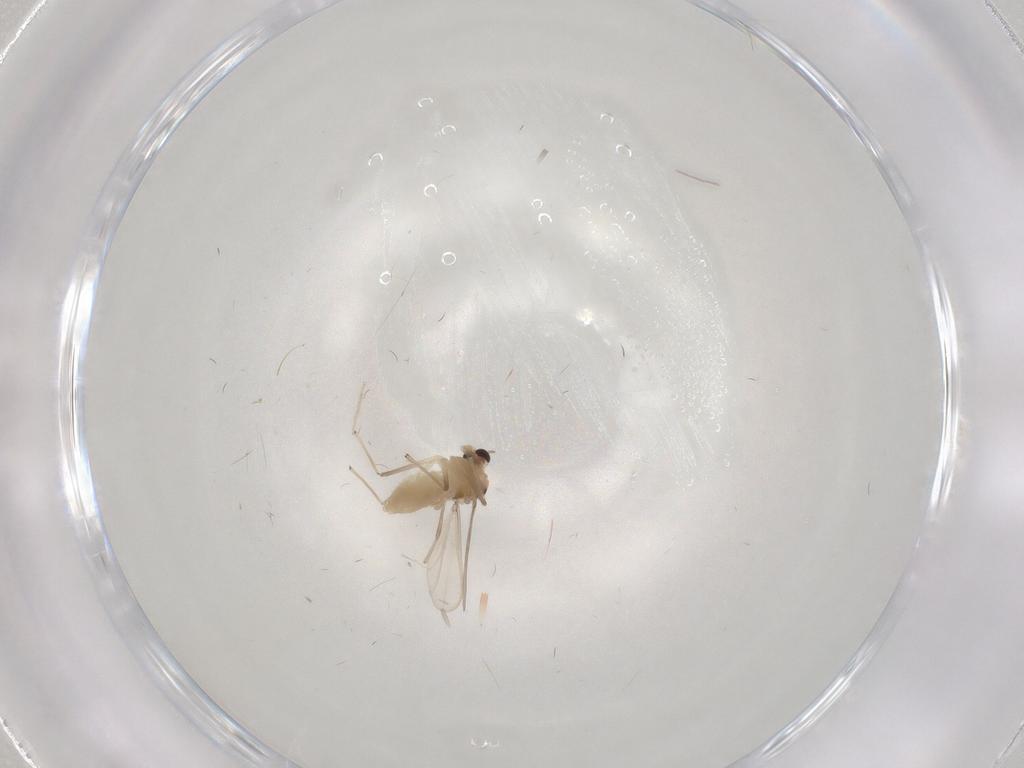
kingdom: Animalia
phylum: Arthropoda
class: Insecta
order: Diptera
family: Chironomidae
